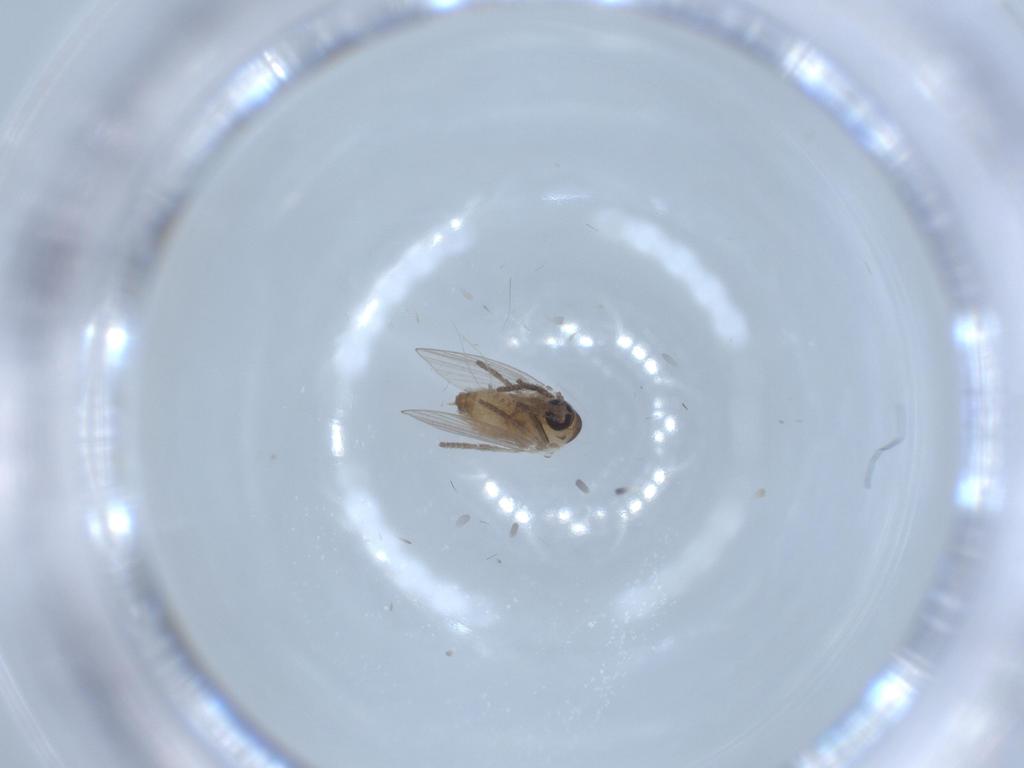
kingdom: Animalia
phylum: Arthropoda
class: Insecta
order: Diptera
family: Psychodidae
